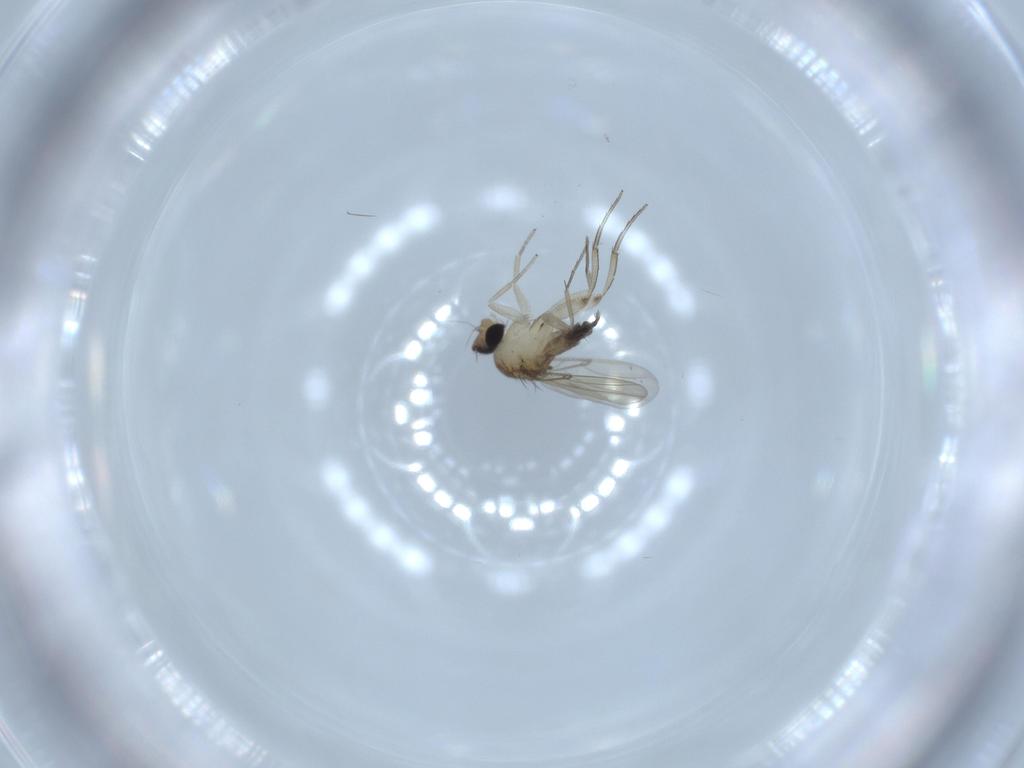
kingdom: Animalia
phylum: Arthropoda
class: Insecta
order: Diptera
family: Phoridae
